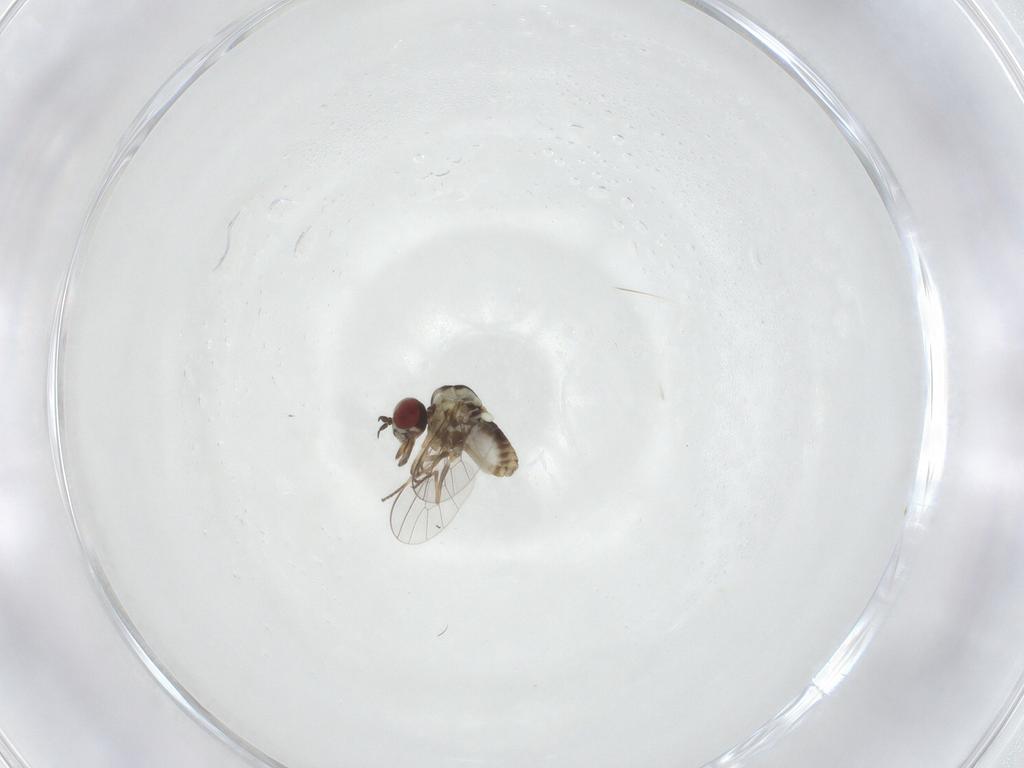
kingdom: Animalia
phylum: Arthropoda
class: Insecta
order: Diptera
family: Mythicomyiidae
